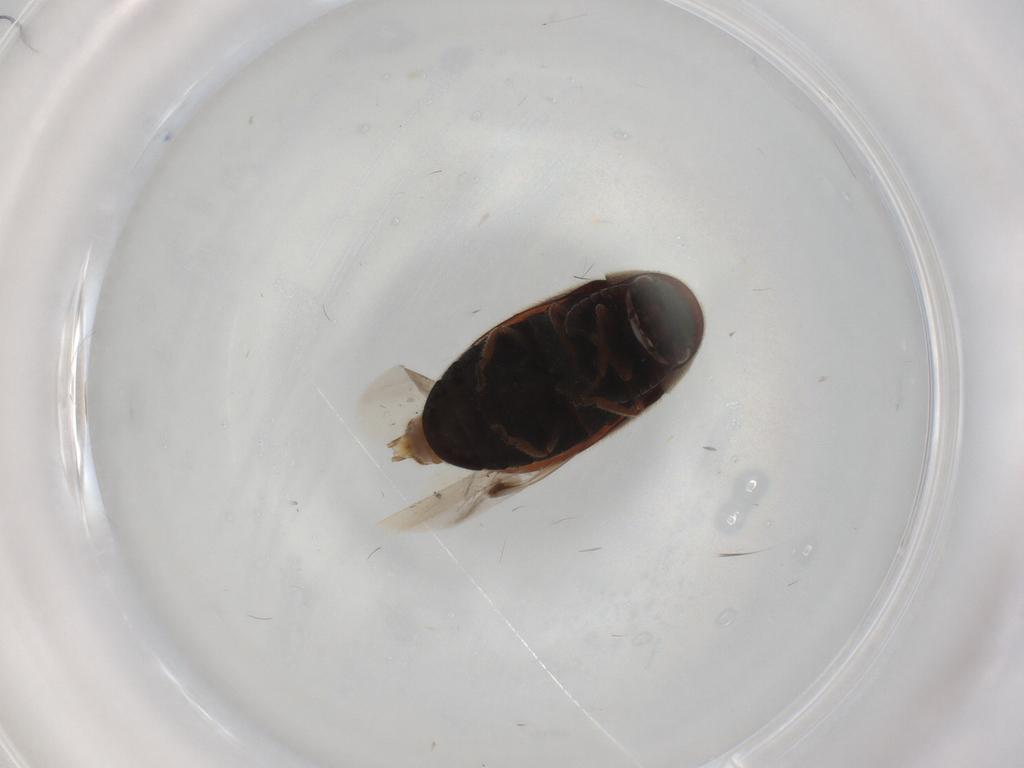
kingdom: Animalia
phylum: Arthropoda
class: Insecta
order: Coleoptera
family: Ptinidae
